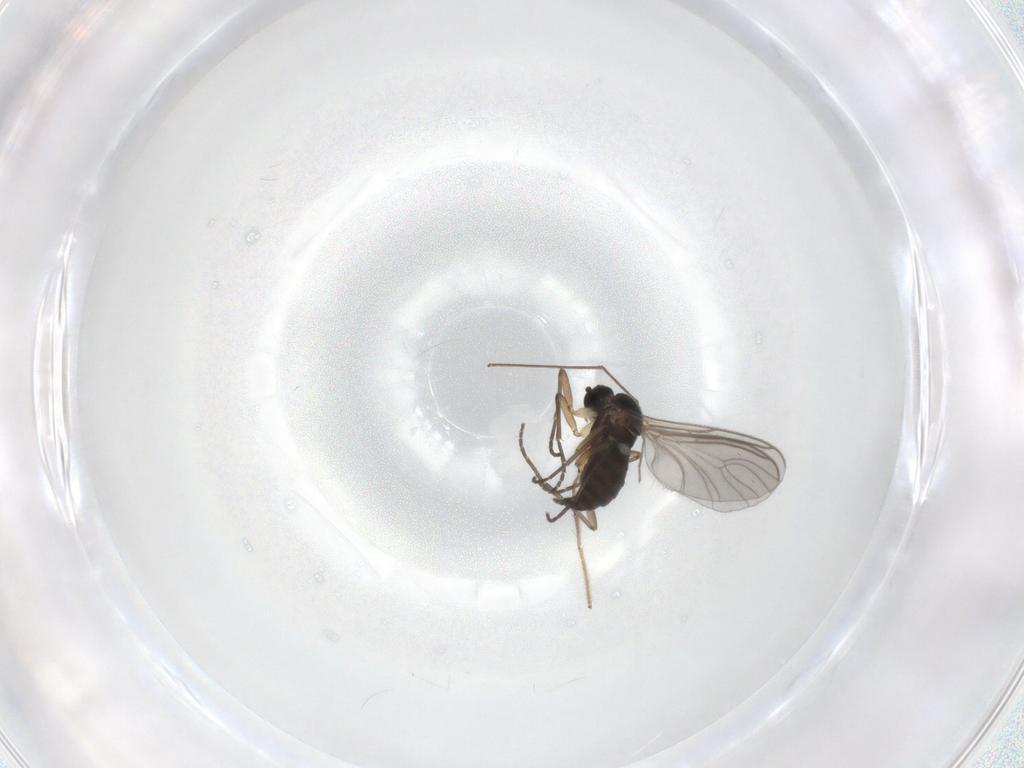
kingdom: Animalia
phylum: Arthropoda
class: Insecta
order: Diptera
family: Sciaridae
